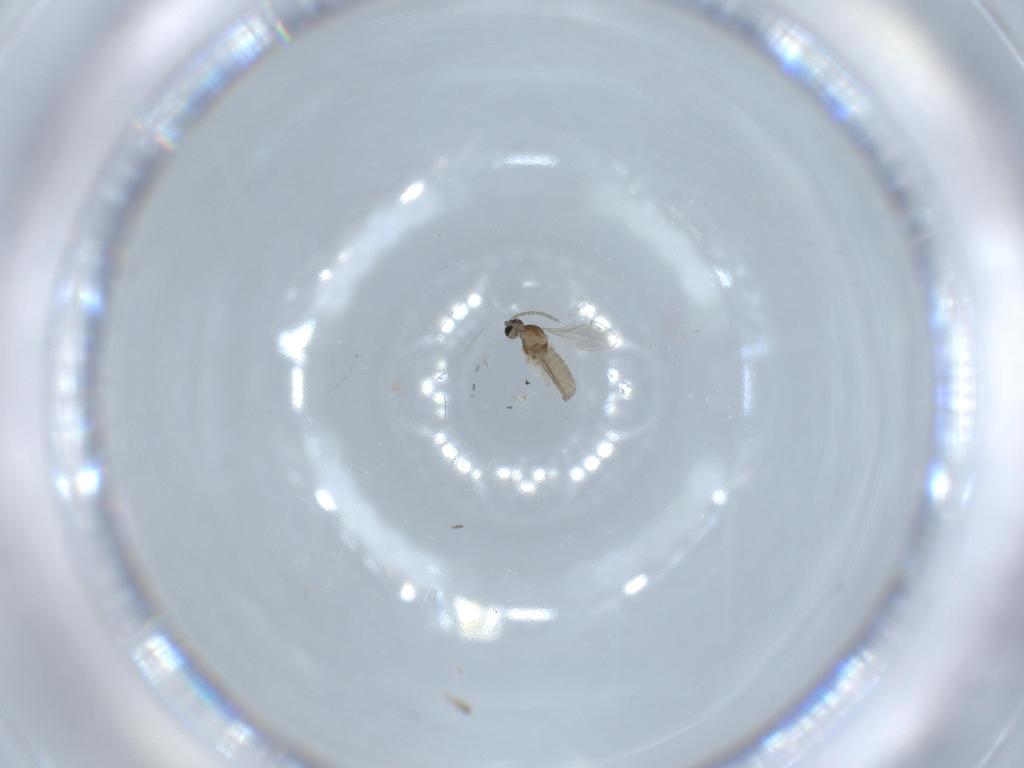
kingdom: Animalia
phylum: Arthropoda
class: Insecta
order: Diptera
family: Cecidomyiidae
